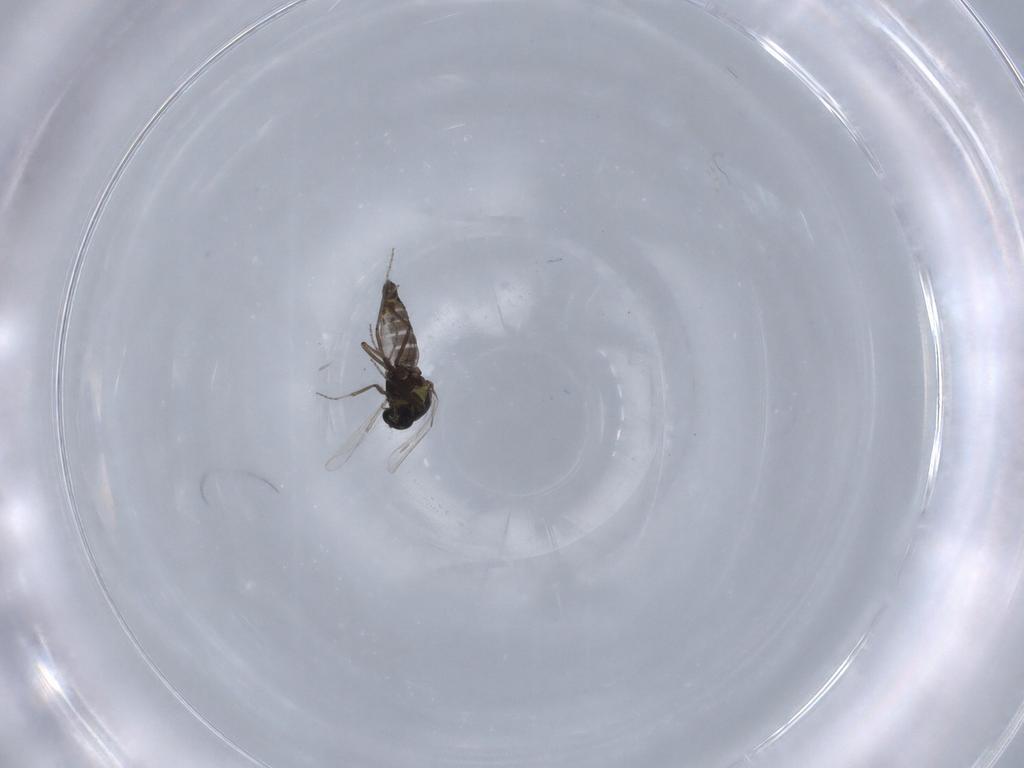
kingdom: Animalia
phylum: Arthropoda
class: Insecta
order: Diptera
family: Ceratopogonidae
